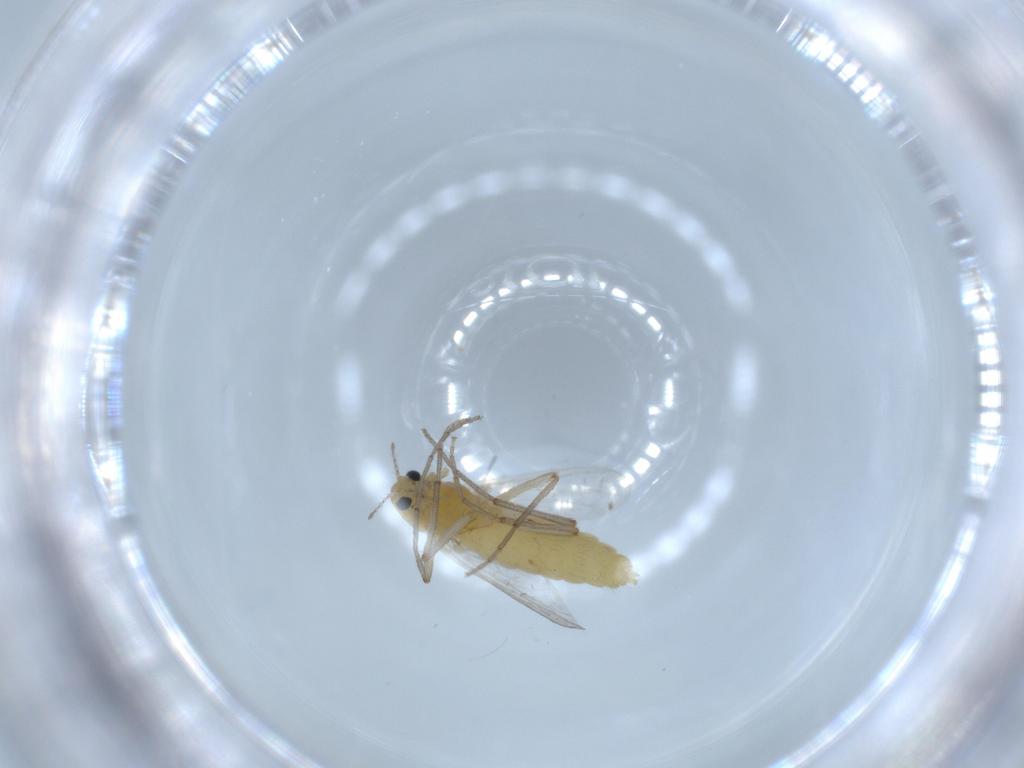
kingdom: Animalia
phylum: Arthropoda
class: Insecta
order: Diptera
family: Chironomidae
